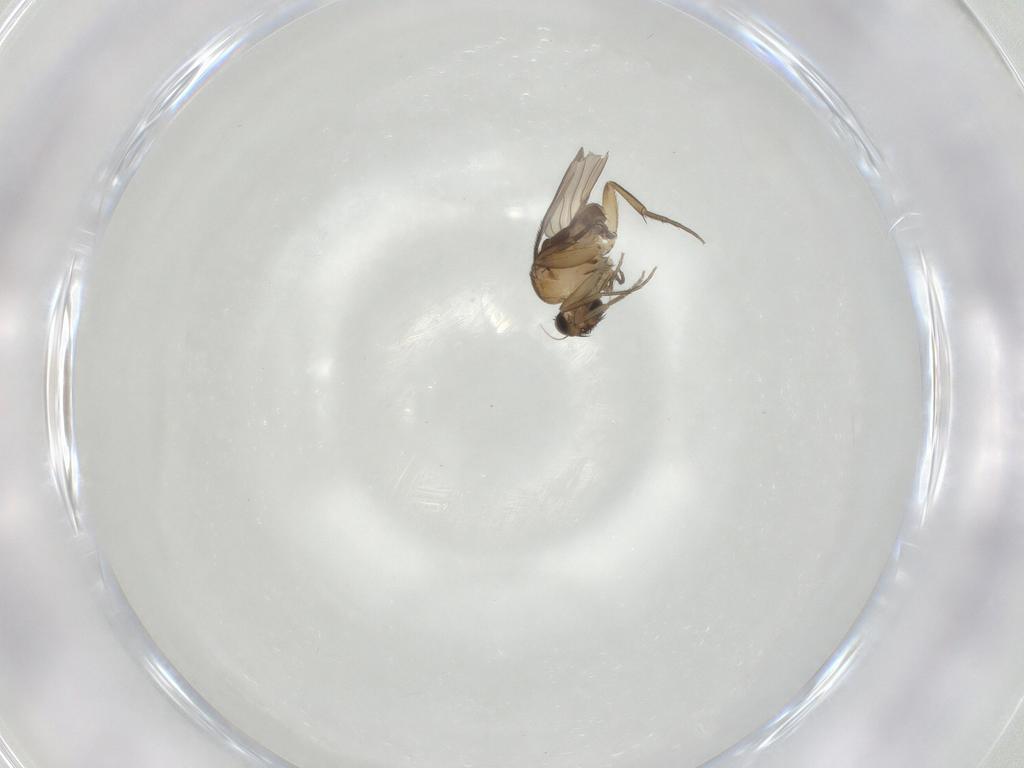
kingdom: Animalia
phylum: Arthropoda
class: Insecta
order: Diptera
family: Phoridae
